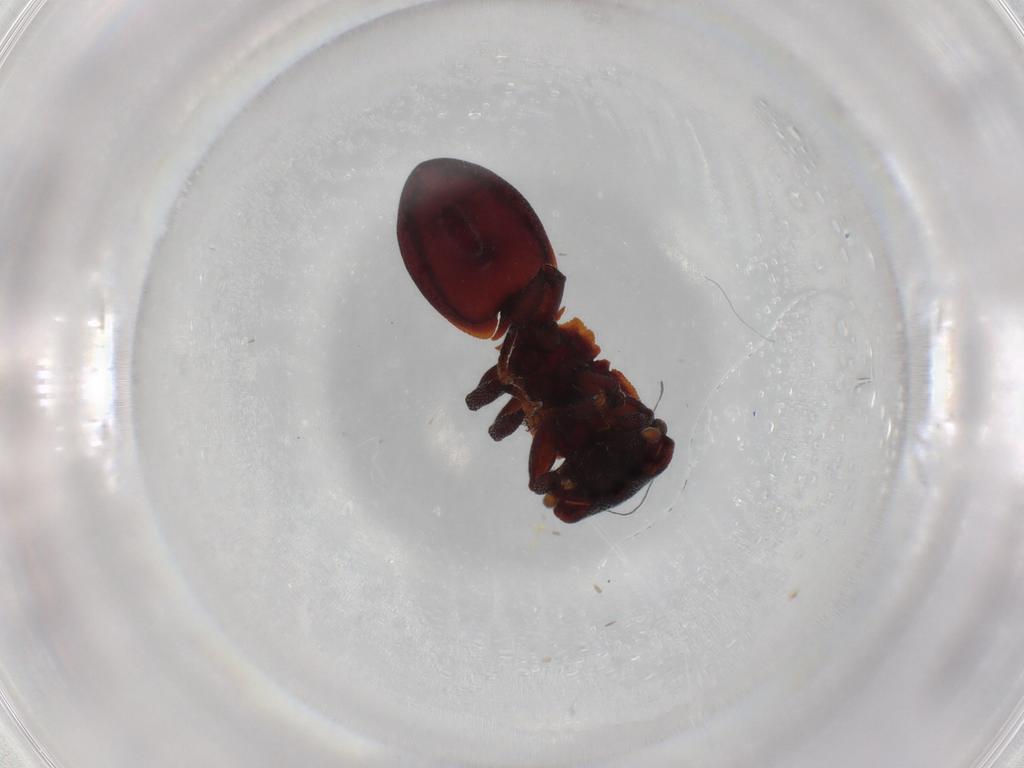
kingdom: Animalia
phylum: Arthropoda
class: Insecta
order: Hymenoptera
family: Formicidae
